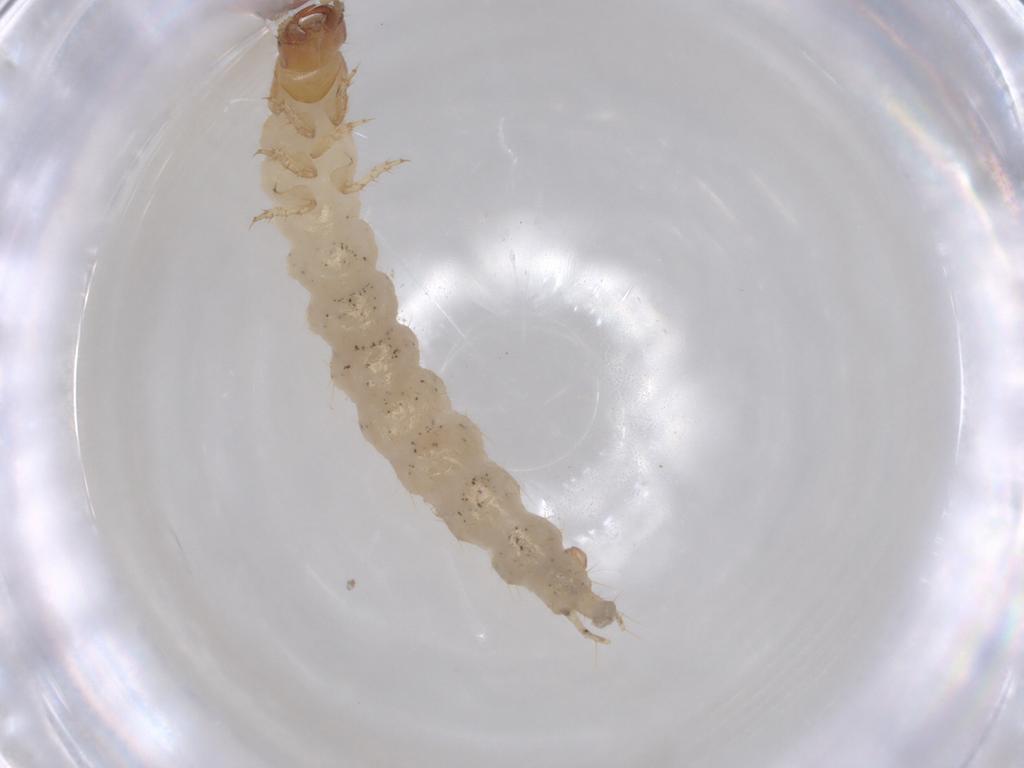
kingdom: Animalia
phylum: Arthropoda
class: Insecta
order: Coleoptera
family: Carabidae
